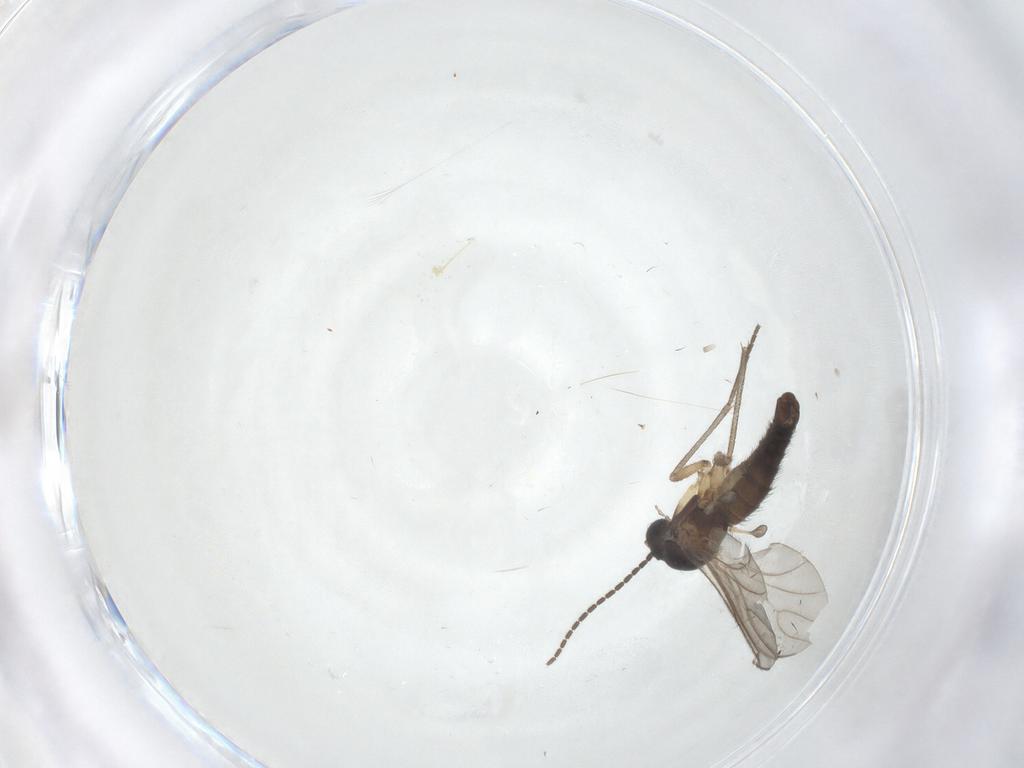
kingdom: Animalia
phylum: Arthropoda
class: Insecta
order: Diptera
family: Sciaridae
